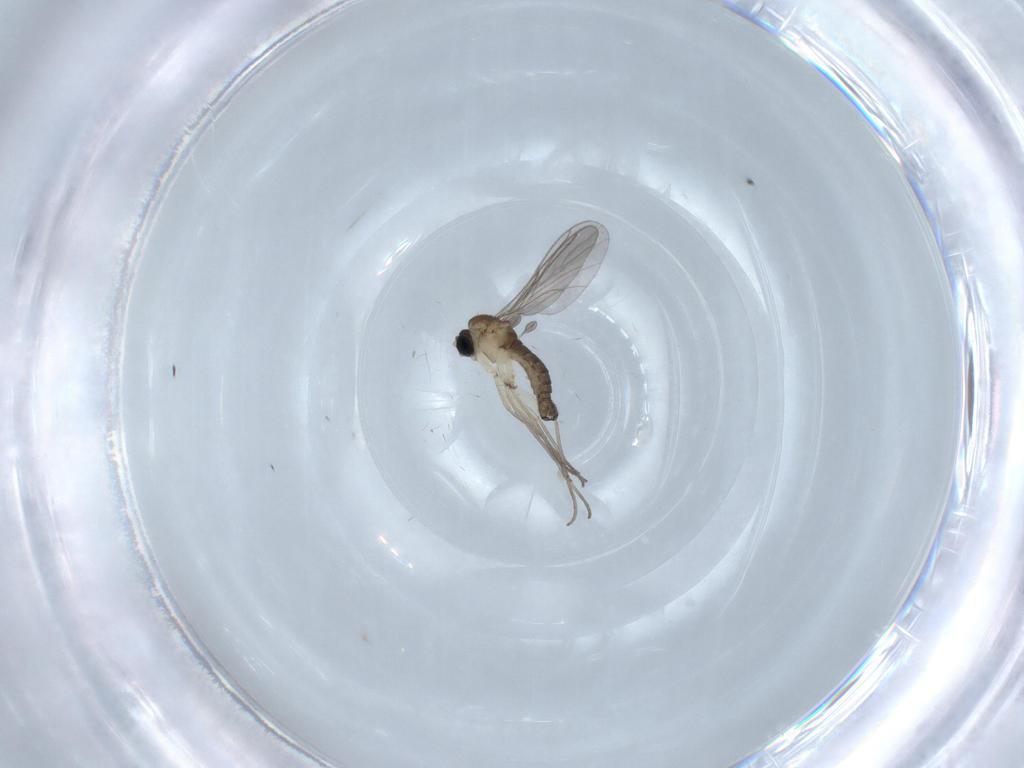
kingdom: Animalia
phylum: Arthropoda
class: Insecta
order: Diptera
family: Sciaridae
